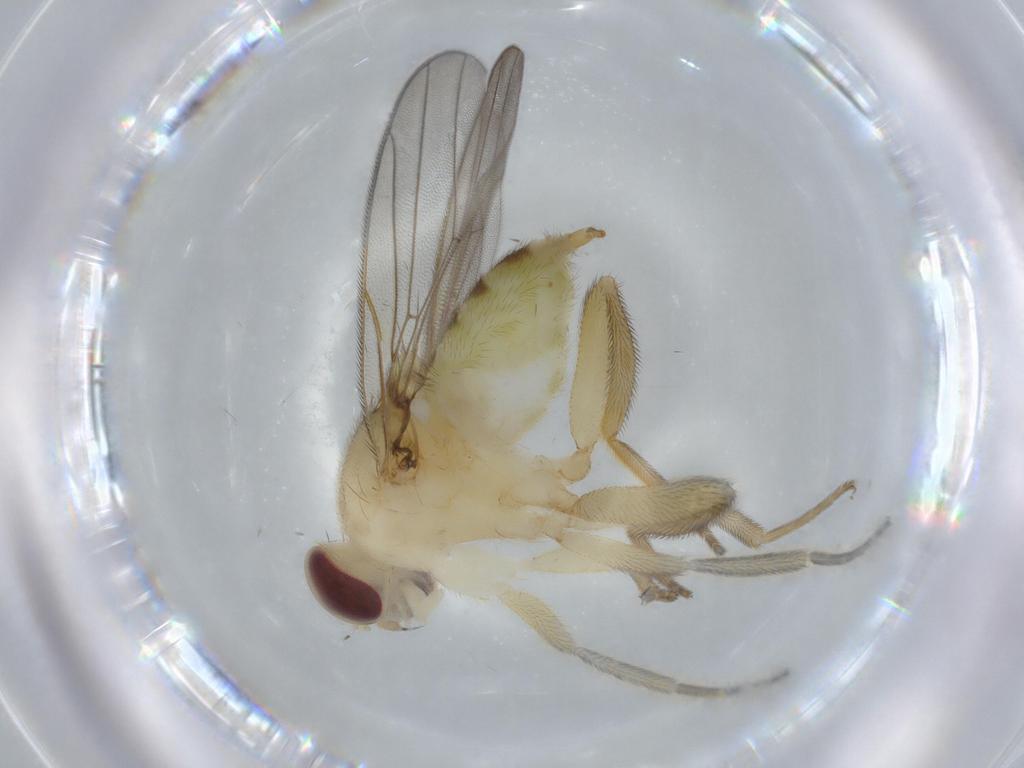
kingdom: Animalia
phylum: Arthropoda
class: Insecta
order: Diptera
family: Chloropidae
